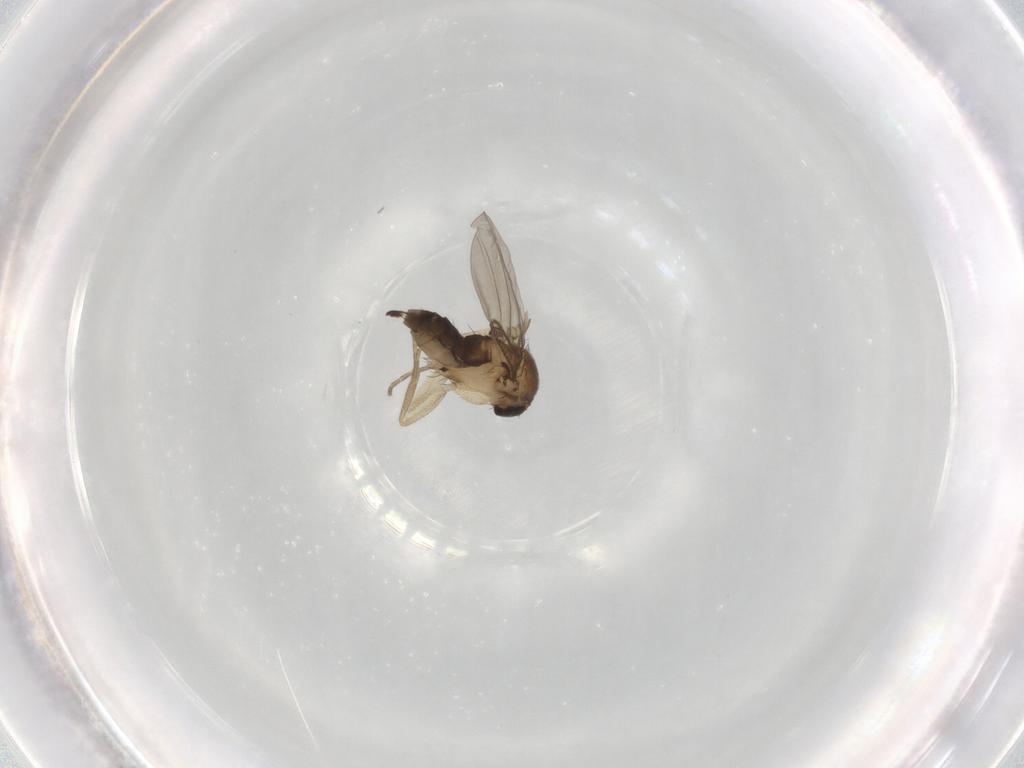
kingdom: Animalia
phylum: Arthropoda
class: Insecta
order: Diptera
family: Phoridae
